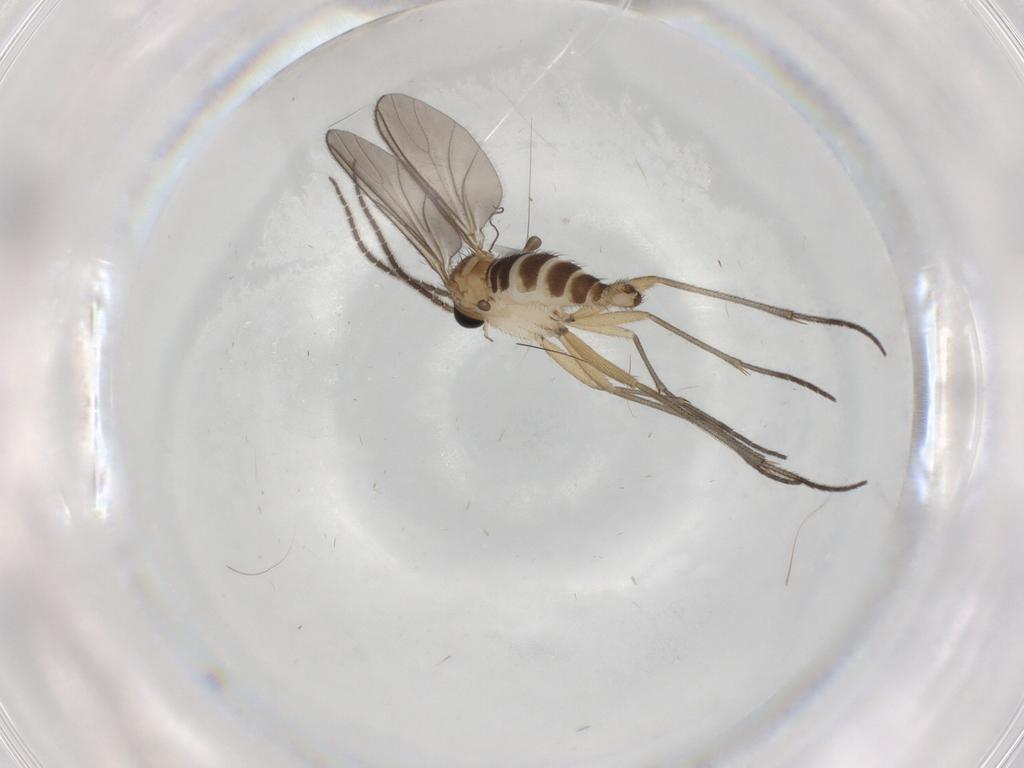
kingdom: Animalia
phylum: Arthropoda
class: Insecta
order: Diptera
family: Sciaridae
